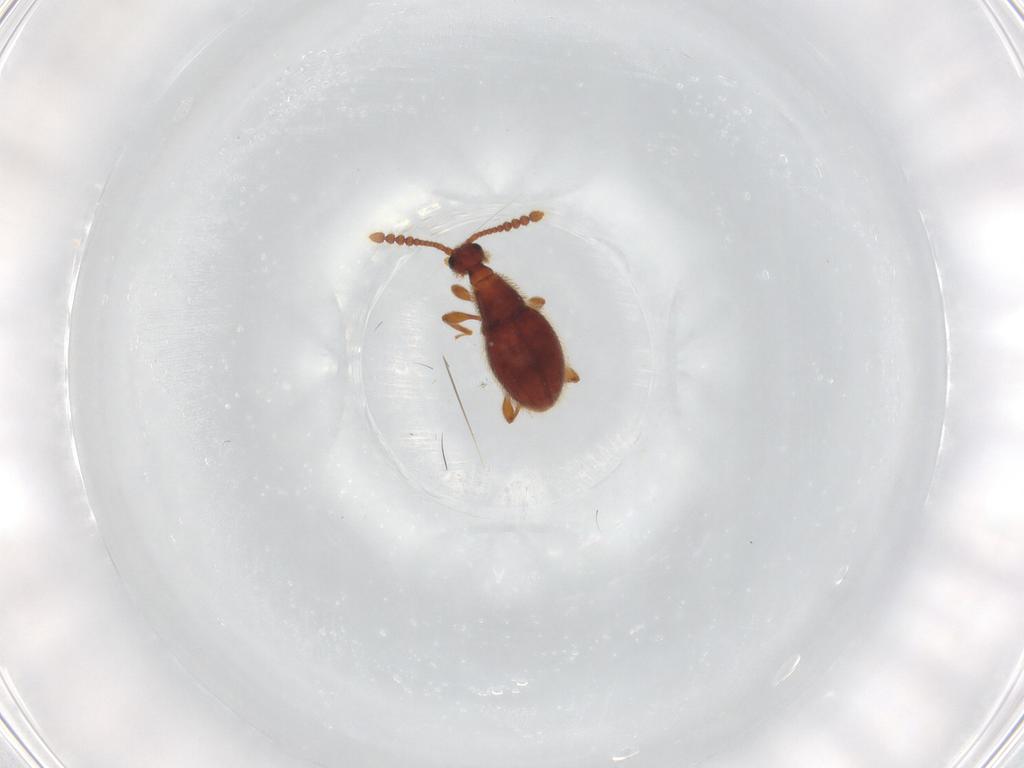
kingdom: Animalia
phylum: Arthropoda
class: Insecta
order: Coleoptera
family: Staphylinidae
